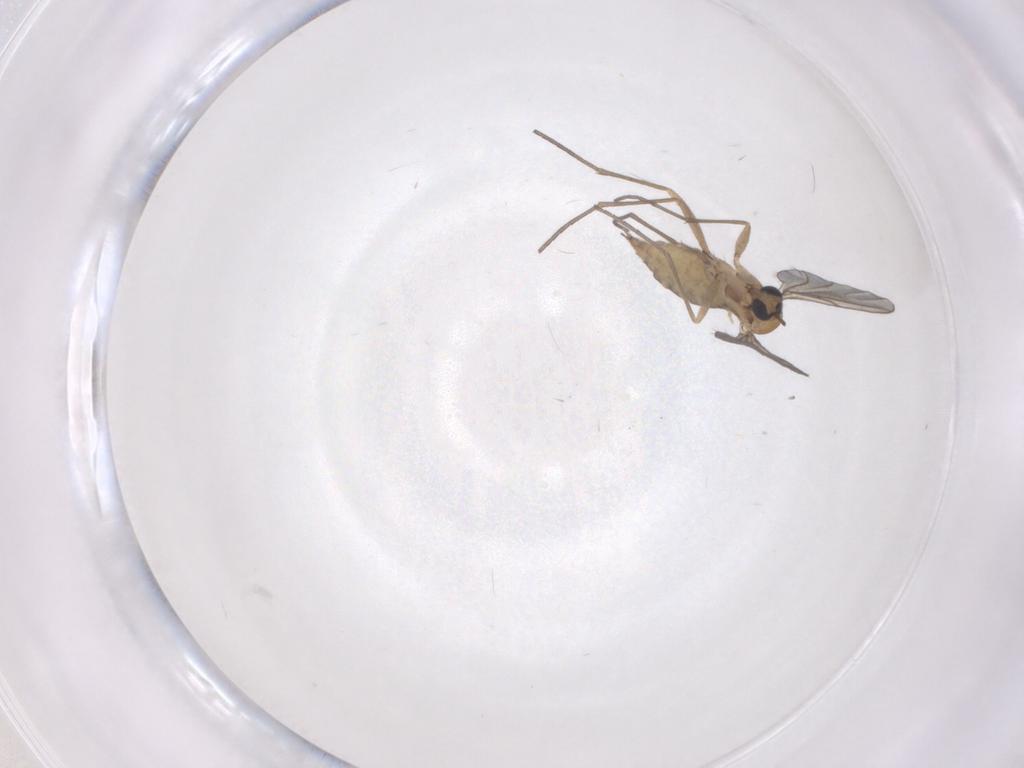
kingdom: Animalia
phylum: Arthropoda
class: Insecta
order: Diptera
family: Sciaridae
